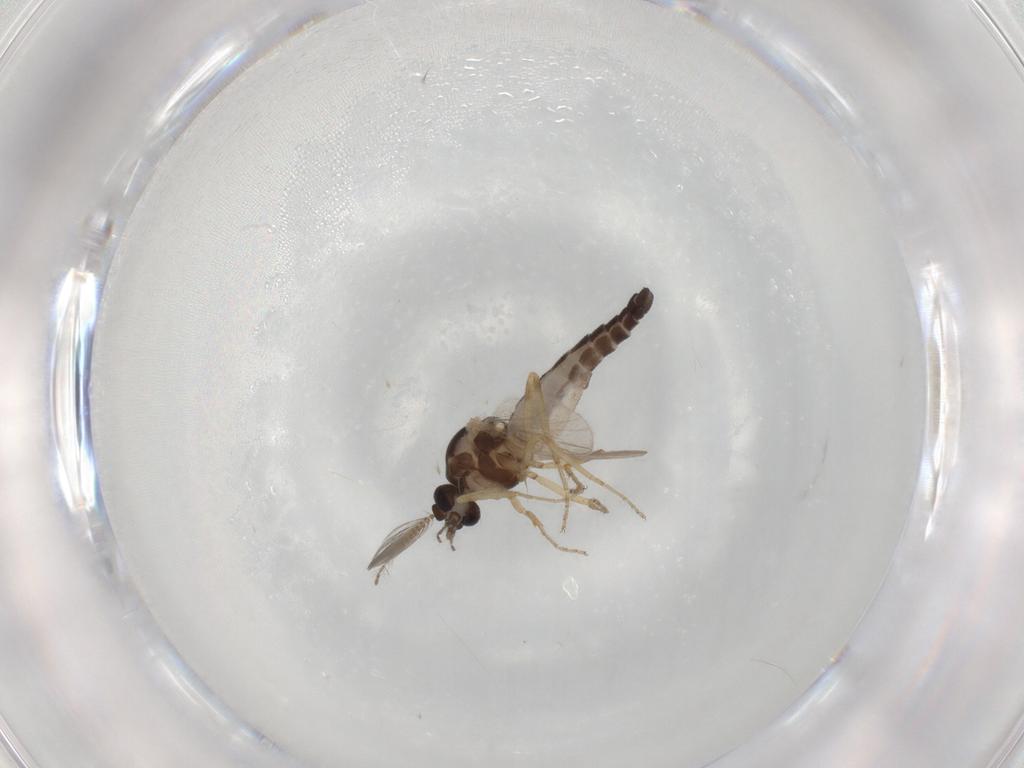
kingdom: Animalia
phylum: Arthropoda
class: Insecta
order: Diptera
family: Ceratopogonidae
